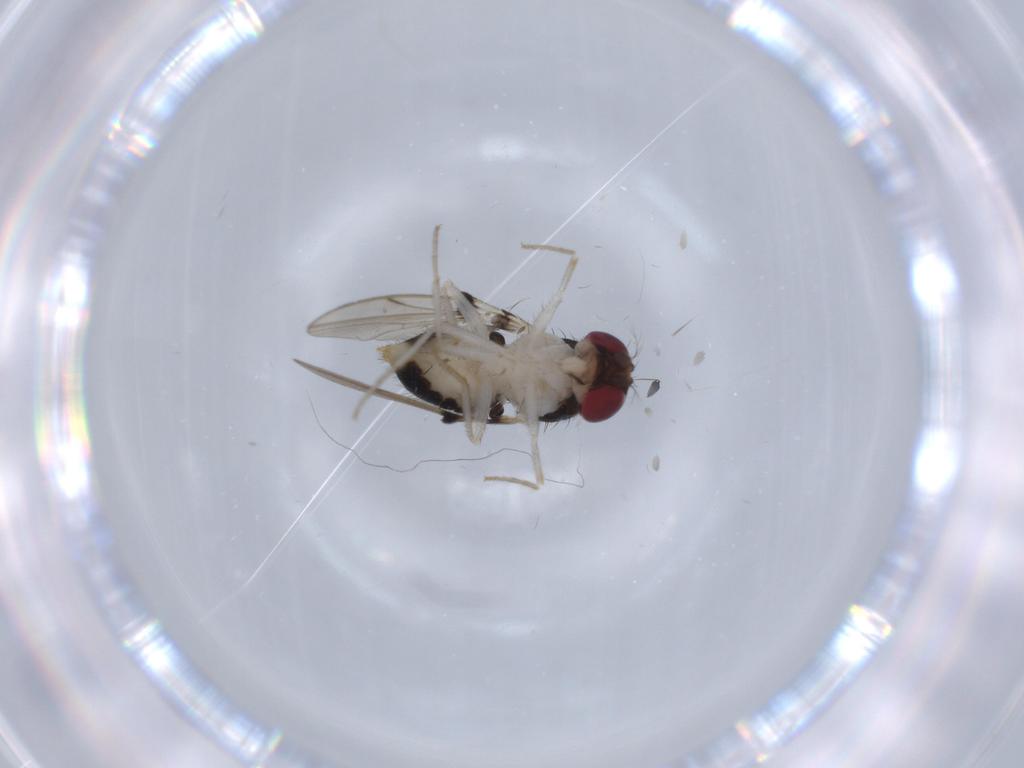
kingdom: Animalia
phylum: Arthropoda
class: Insecta
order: Diptera
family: Drosophilidae
